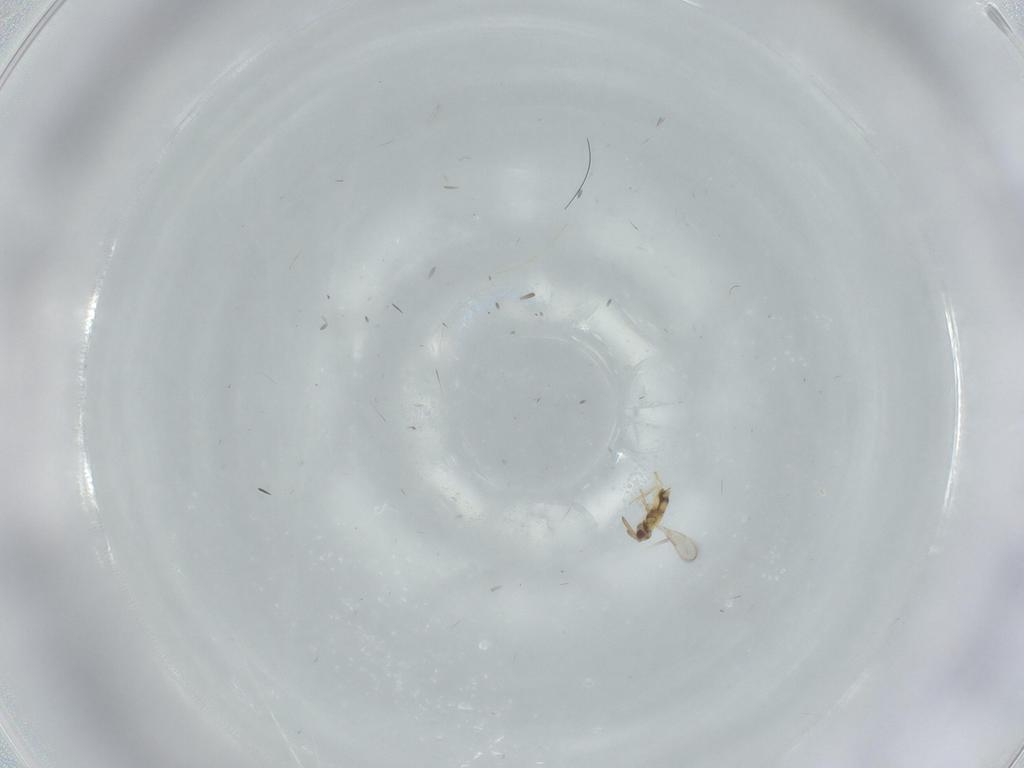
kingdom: Animalia
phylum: Arthropoda
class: Insecta
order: Hymenoptera
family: Aphelinidae
